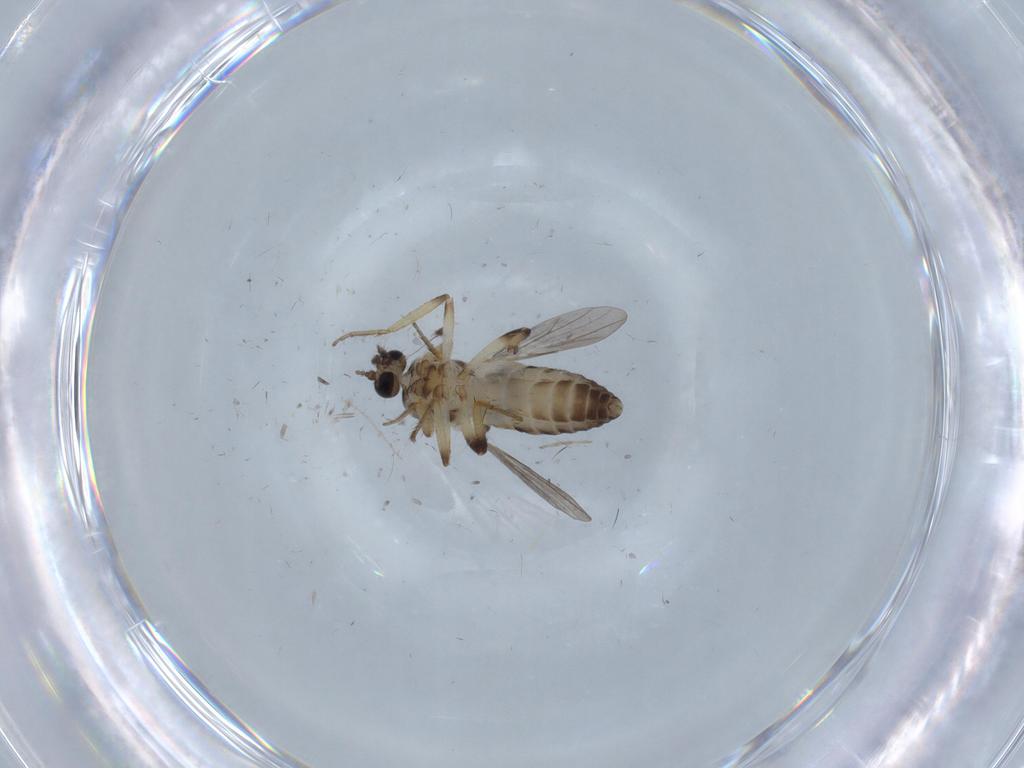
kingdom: Animalia
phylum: Arthropoda
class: Insecta
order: Diptera
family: Ceratopogonidae
